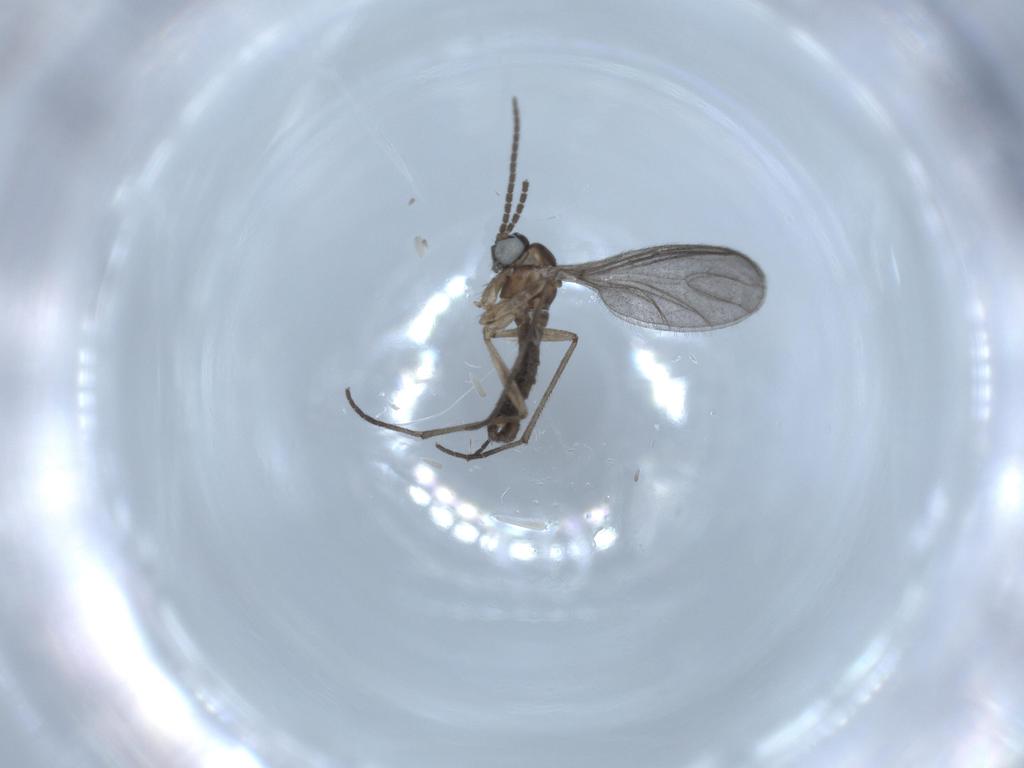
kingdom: Animalia
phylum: Arthropoda
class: Insecta
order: Diptera
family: Sciaridae
